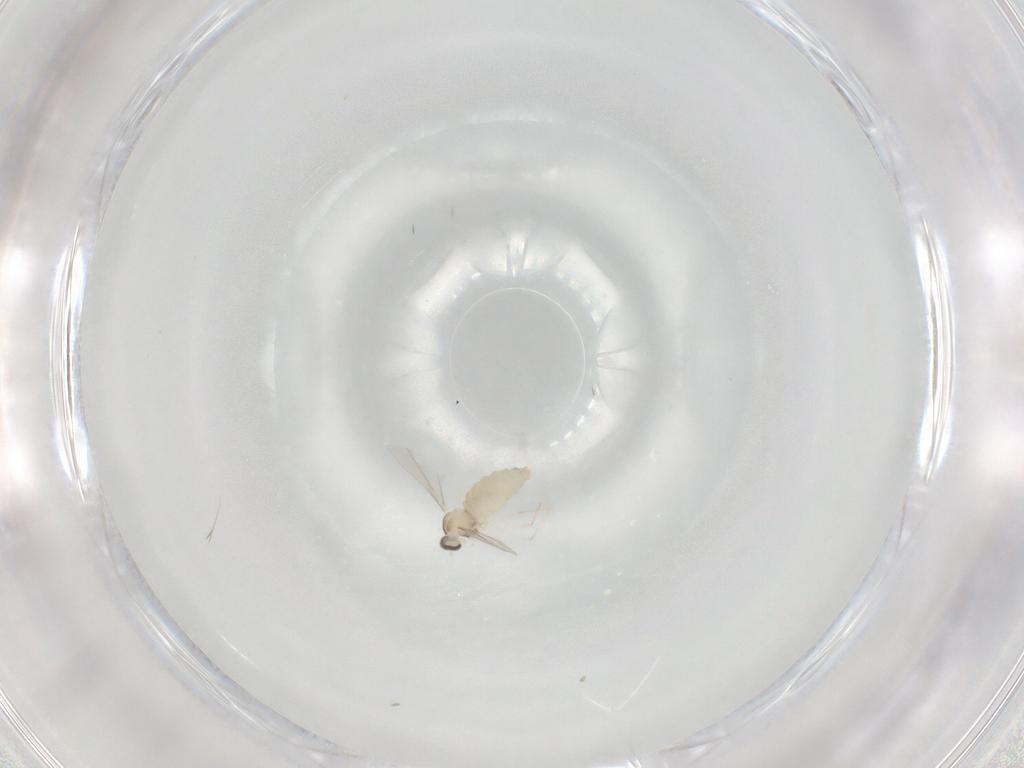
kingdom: Animalia
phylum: Arthropoda
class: Insecta
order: Diptera
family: Cecidomyiidae
